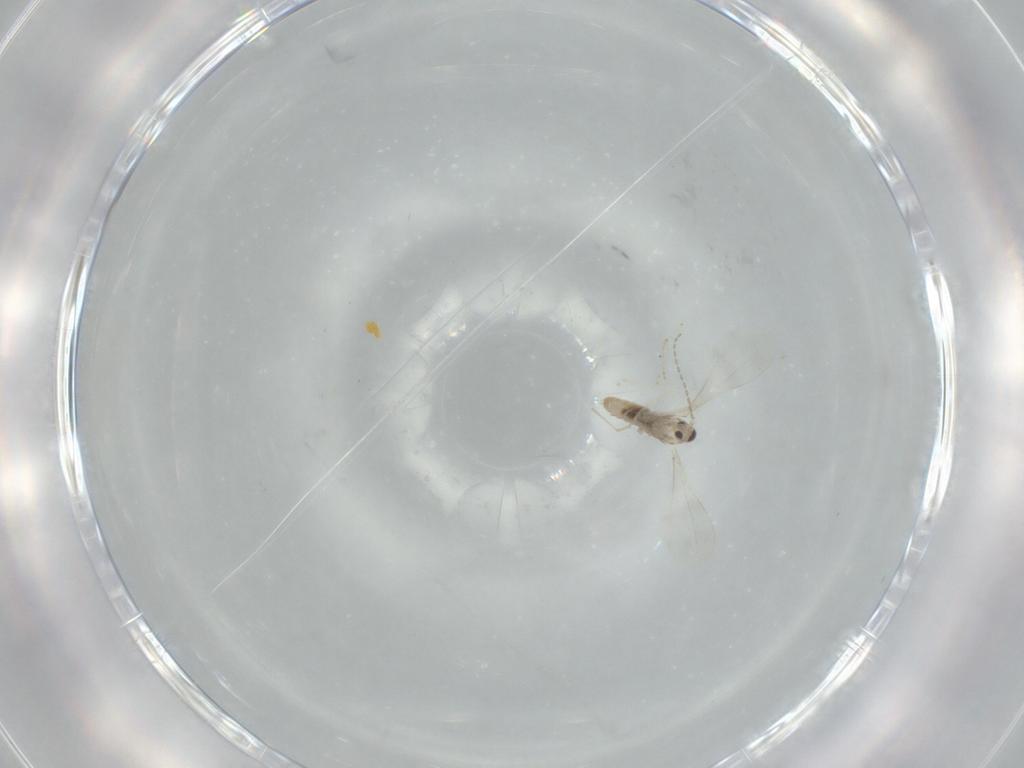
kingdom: Animalia
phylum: Arthropoda
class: Insecta
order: Diptera
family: Cecidomyiidae
